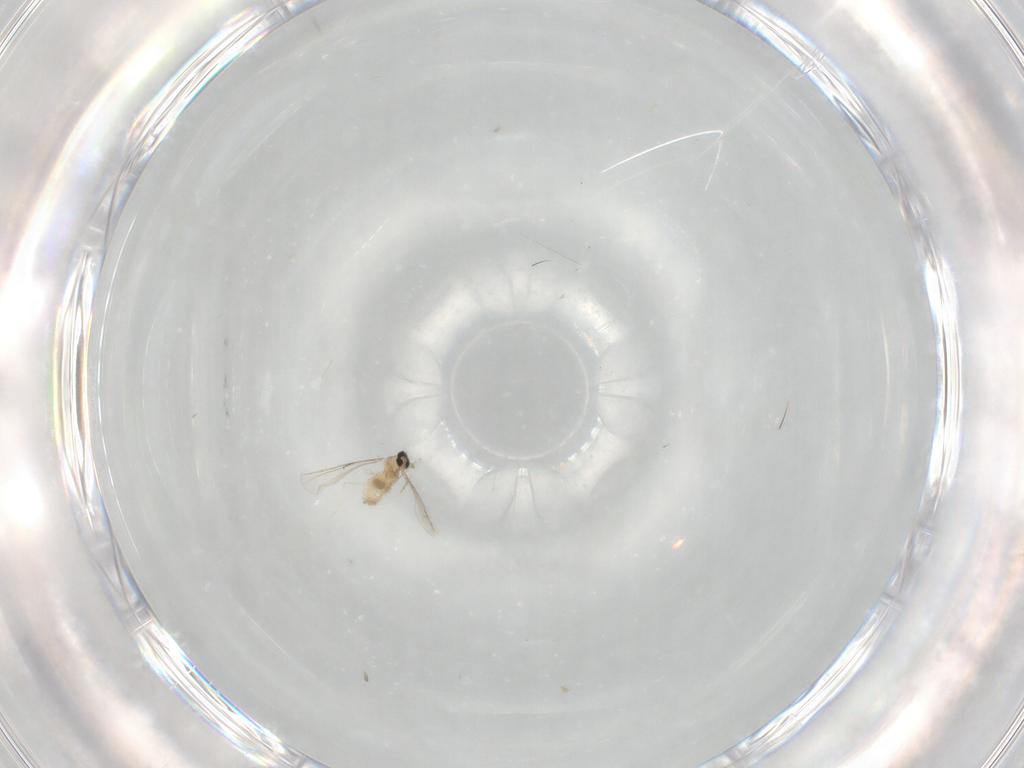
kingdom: Animalia
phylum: Arthropoda
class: Insecta
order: Diptera
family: Cecidomyiidae
